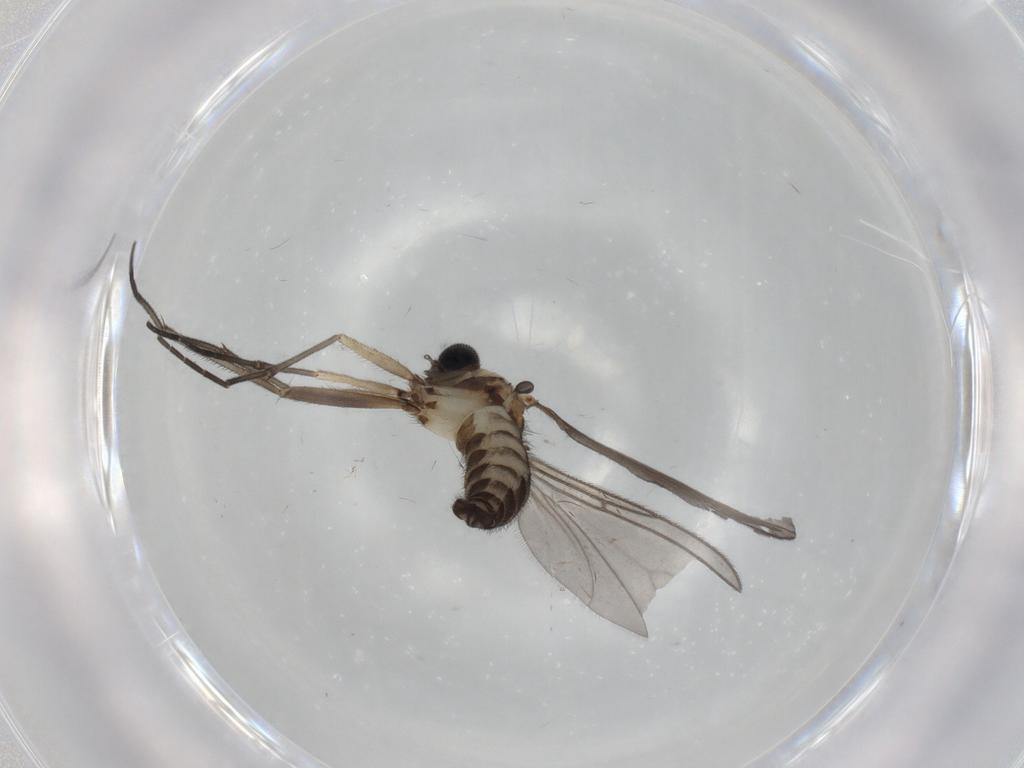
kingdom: Animalia
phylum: Arthropoda
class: Insecta
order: Diptera
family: Sciaridae
